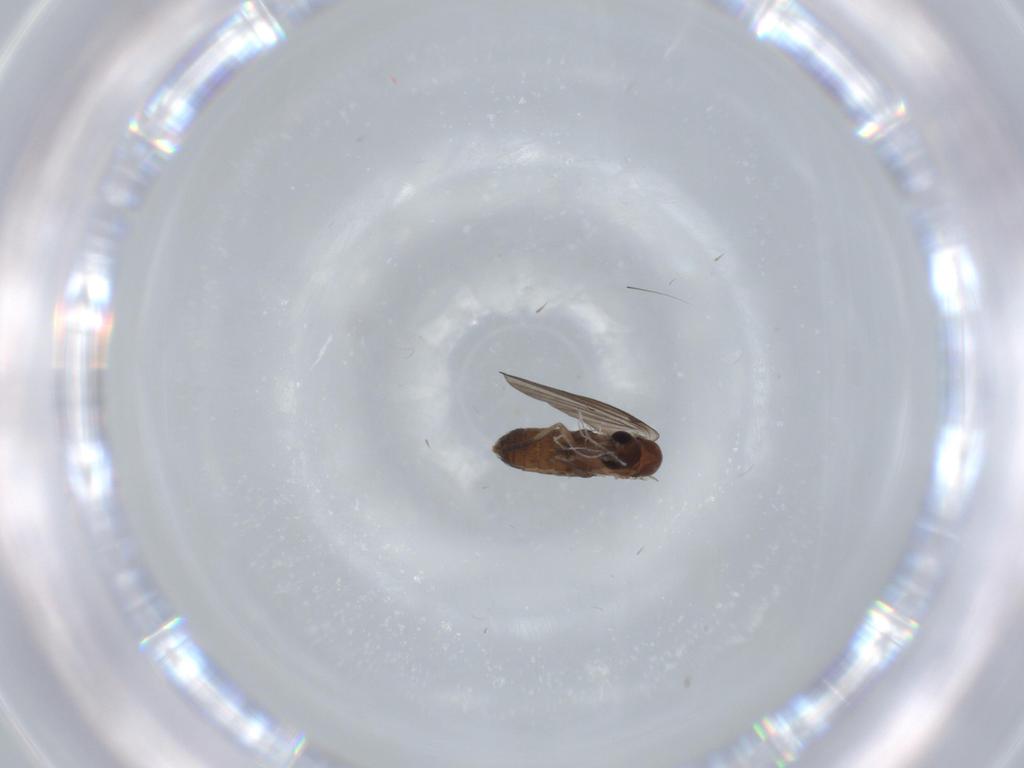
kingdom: Animalia
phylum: Arthropoda
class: Insecta
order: Diptera
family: Psychodidae
